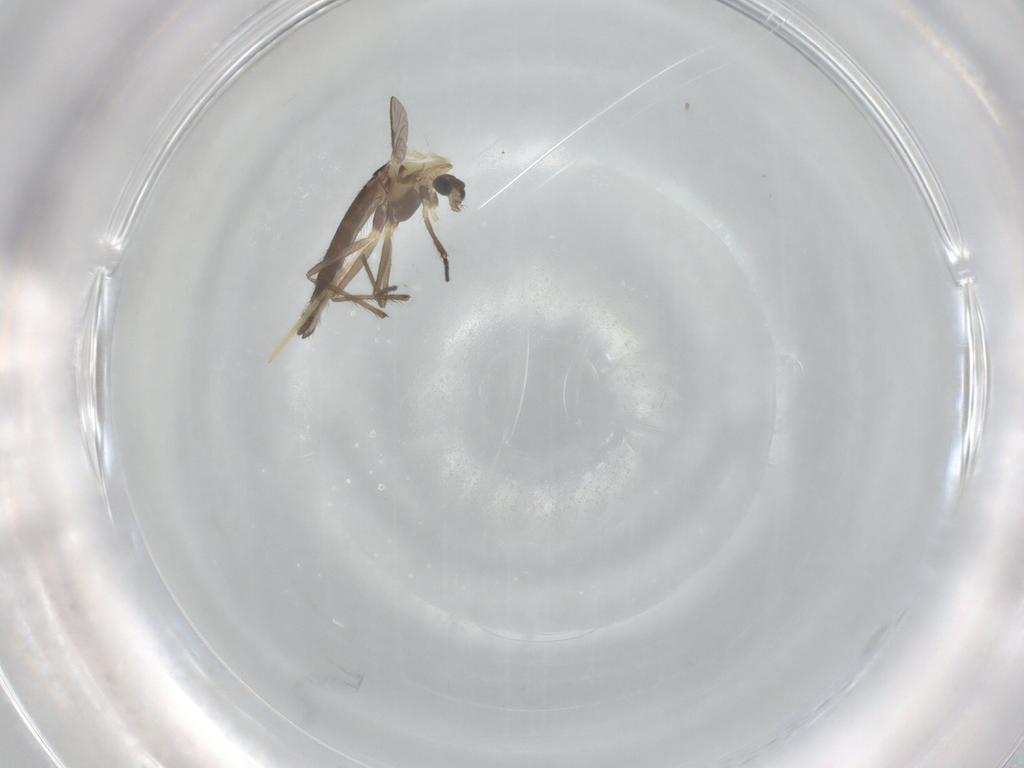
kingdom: Animalia
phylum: Arthropoda
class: Insecta
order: Diptera
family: Chironomidae
